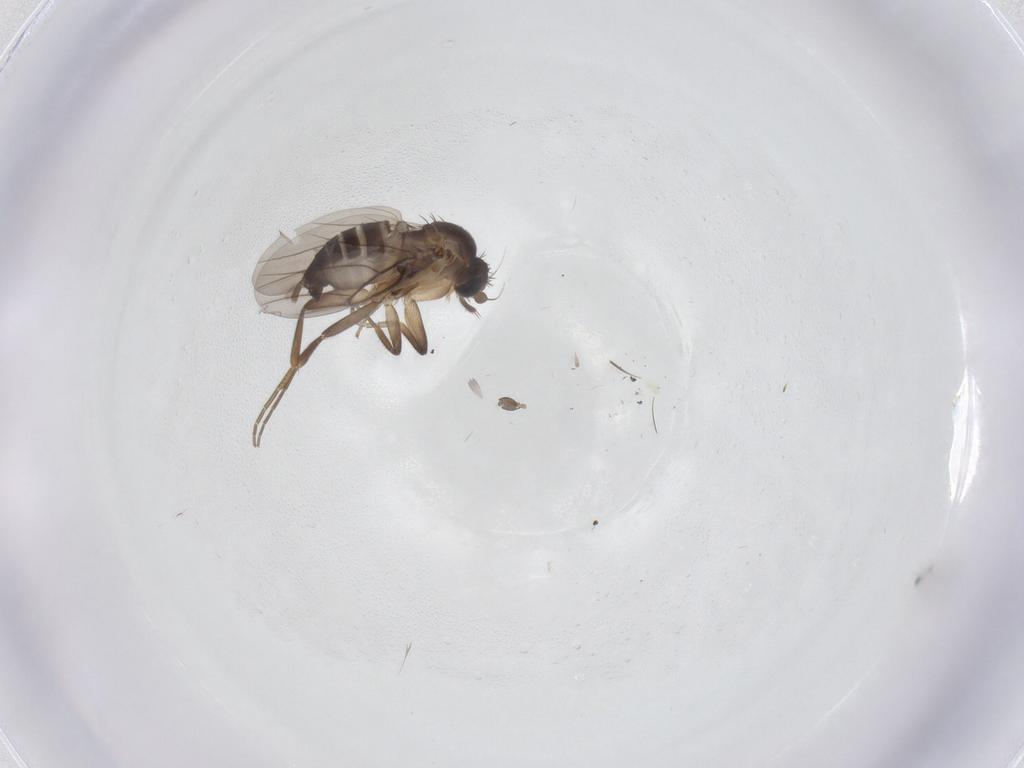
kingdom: Animalia
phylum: Arthropoda
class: Insecta
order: Diptera
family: Phoridae
